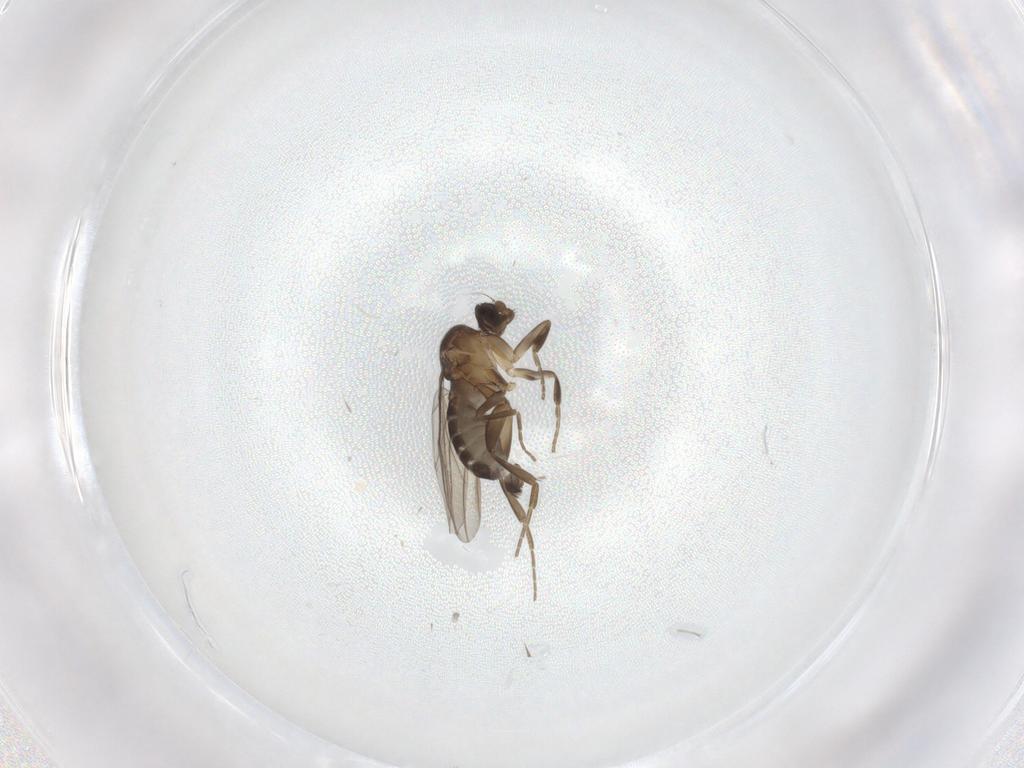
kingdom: Animalia
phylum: Arthropoda
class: Insecta
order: Diptera
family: Phoridae
